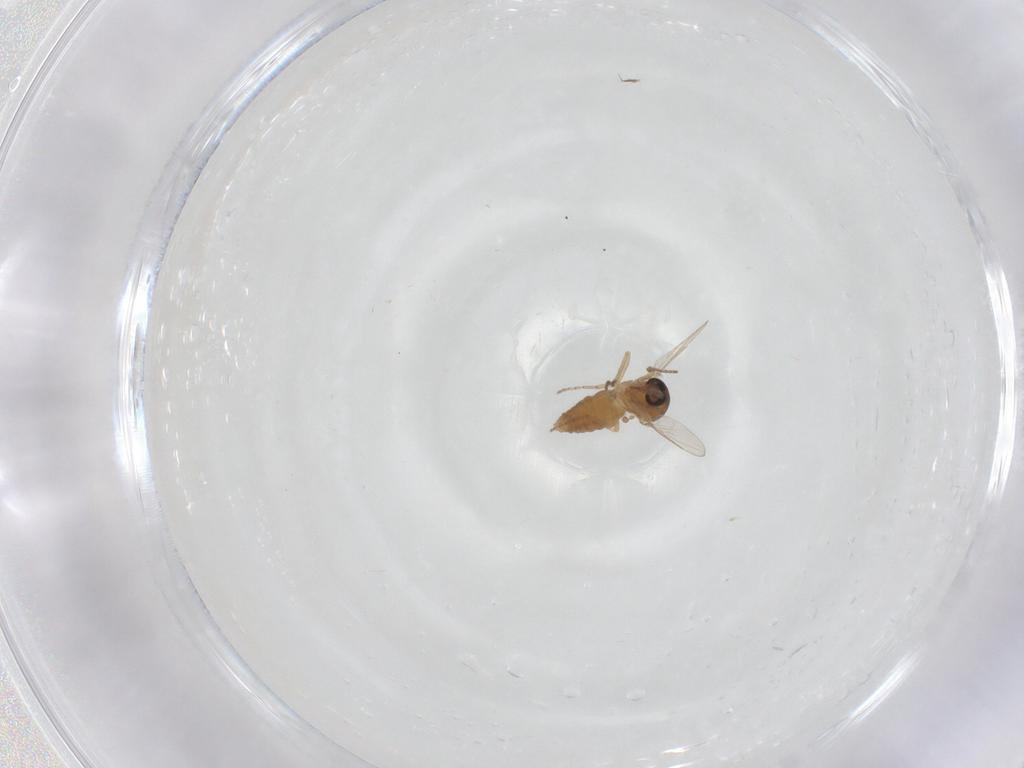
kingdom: Animalia
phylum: Arthropoda
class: Insecta
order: Diptera
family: Ceratopogonidae
